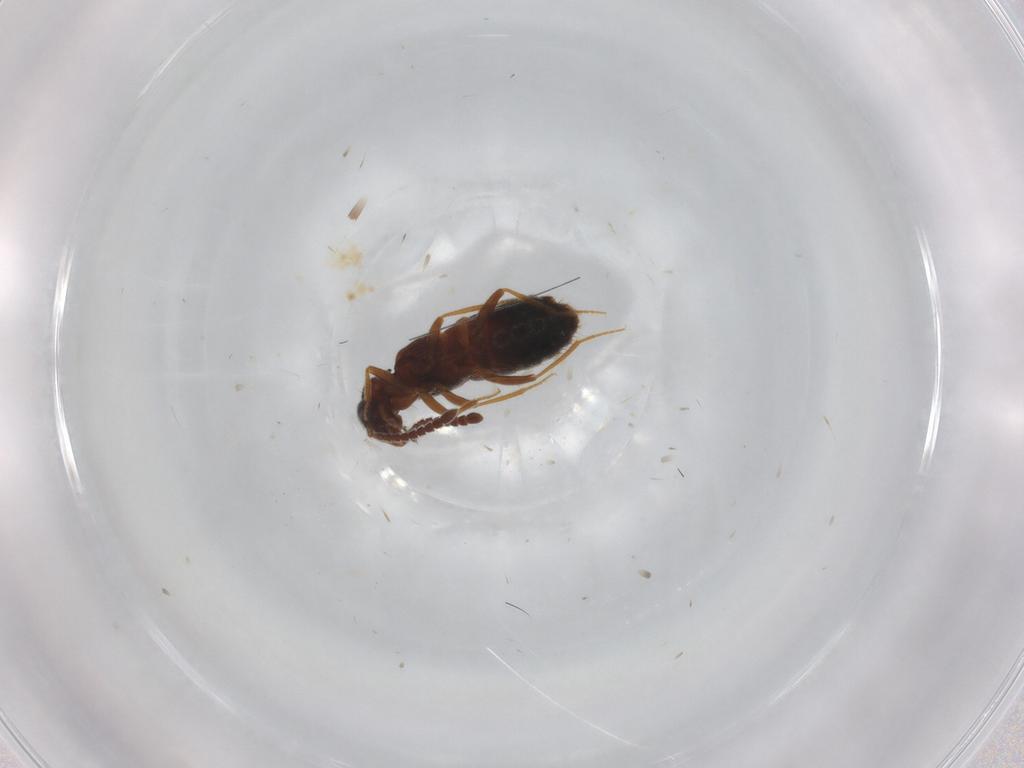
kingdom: Animalia
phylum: Arthropoda
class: Insecta
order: Coleoptera
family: Staphylinidae
